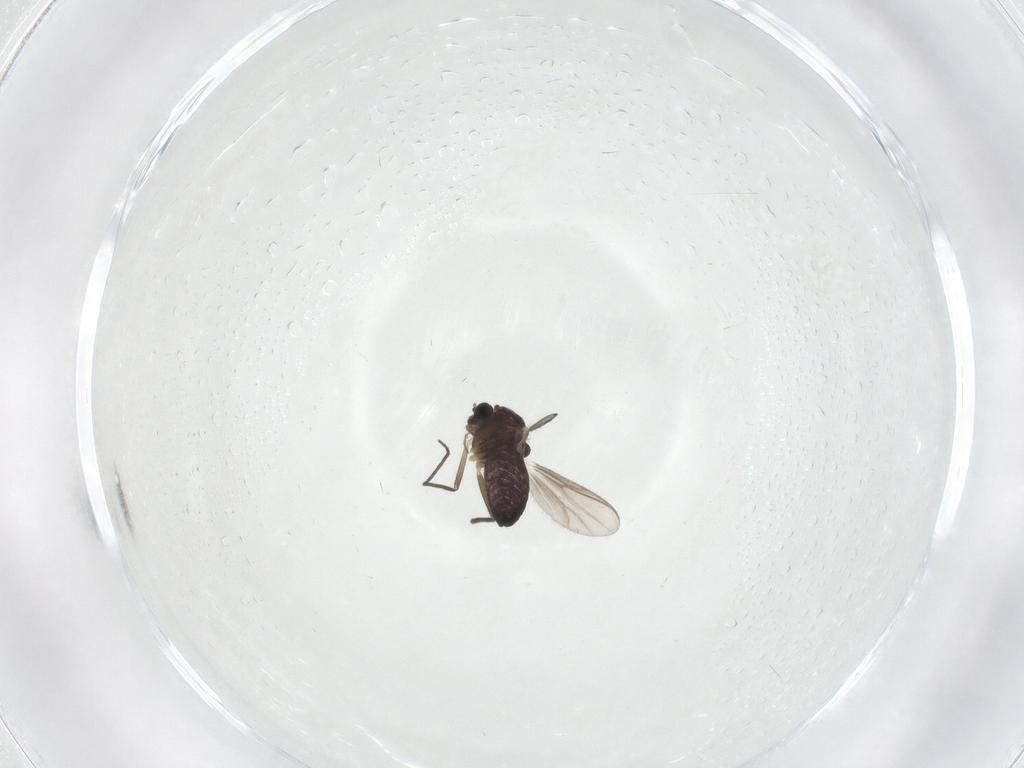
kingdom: Animalia
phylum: Arthropoda
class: Insecta
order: Diptera
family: Chironomidae
